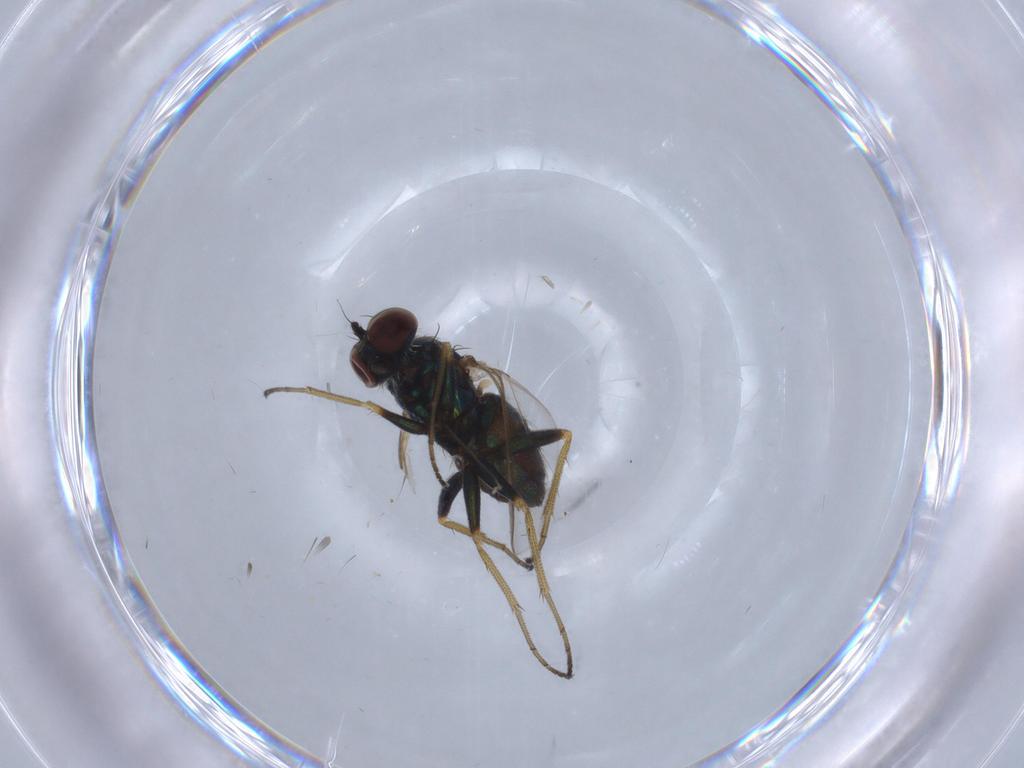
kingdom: Animalia
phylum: Arthropoda
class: Insecta
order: Diptera
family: Chironomidae
